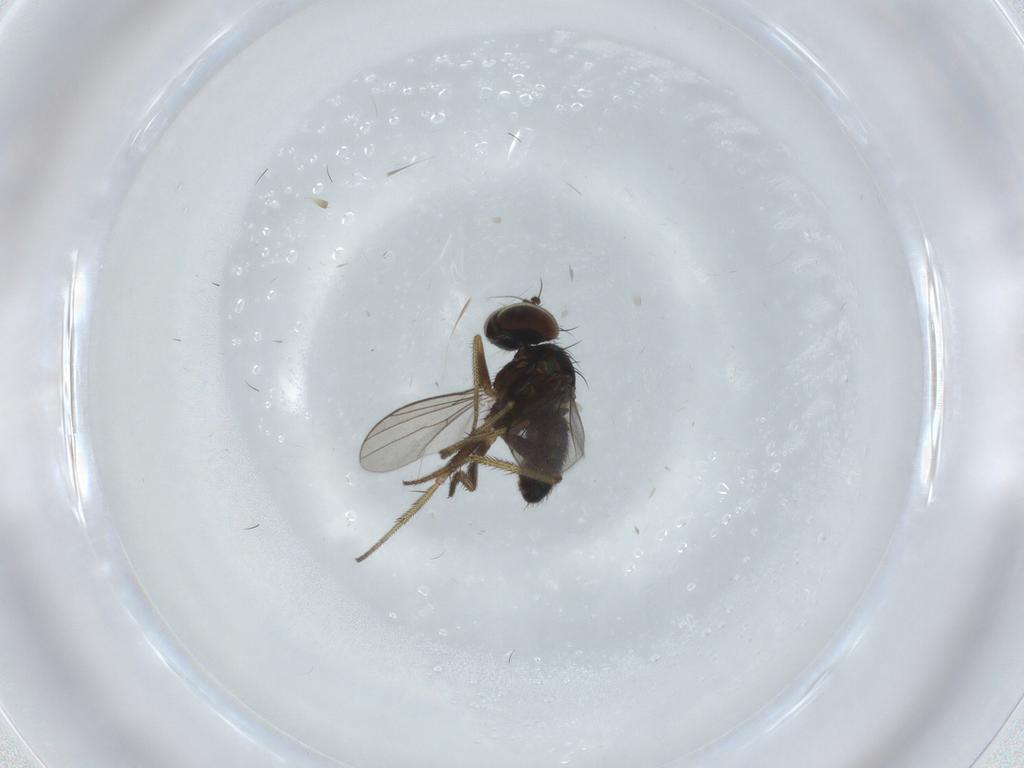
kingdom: Animalia
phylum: Arthropoda
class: Insecta
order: Diptera
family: Dolichopodidae
